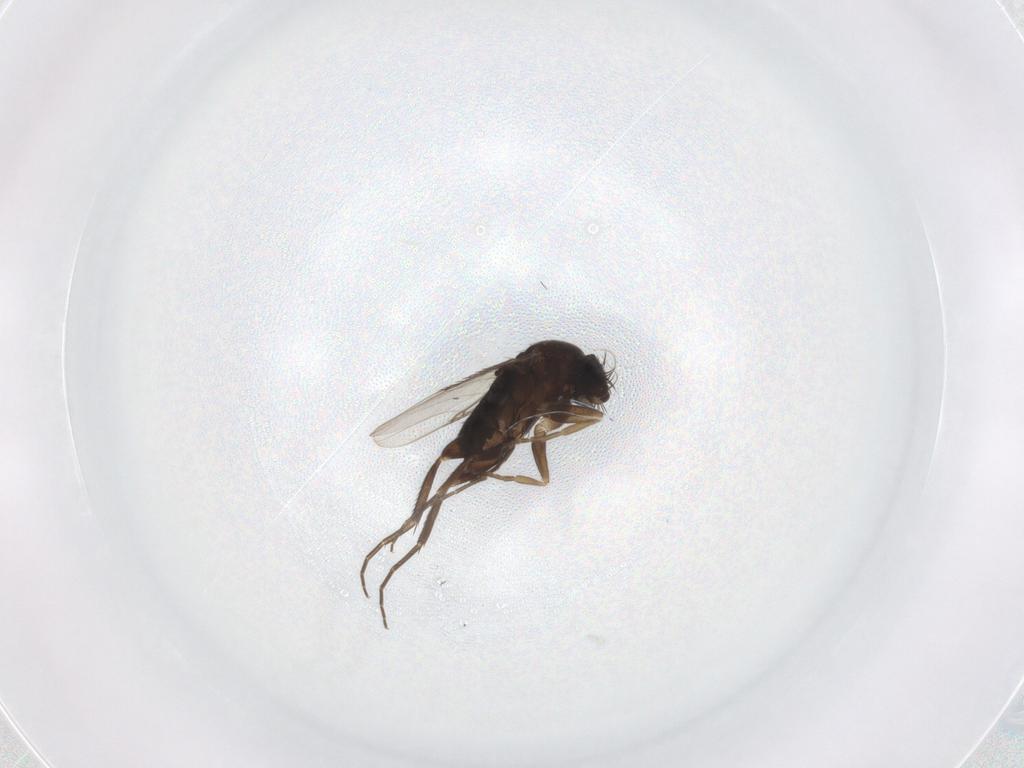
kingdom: Animalia
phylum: Arthropoda
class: Insecta
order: Diptera
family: Phoridae
